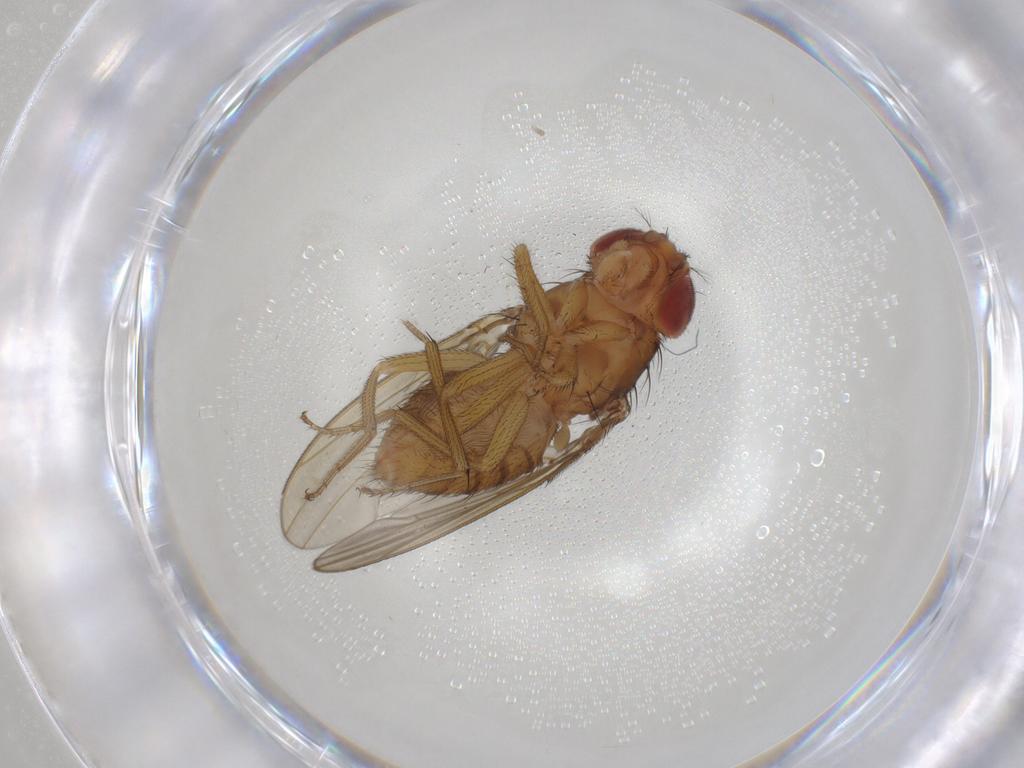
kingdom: Animalia
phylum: Arthropoda
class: Insecta
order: Diptera
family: Drosophilidae
